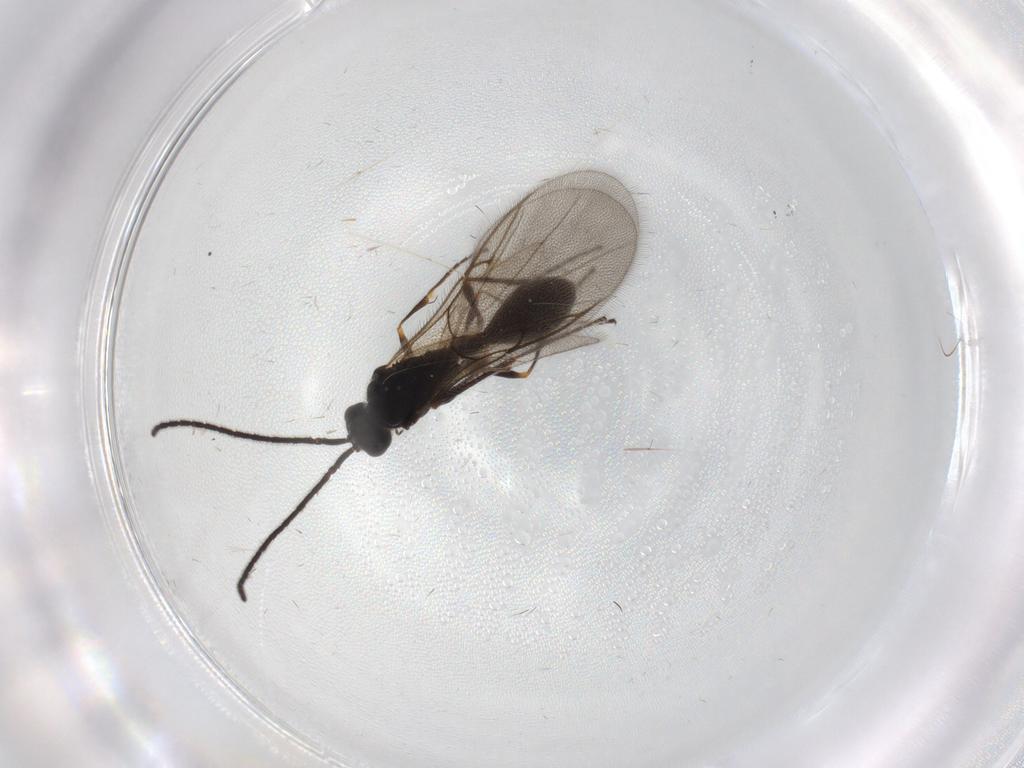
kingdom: Animalia
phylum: Arthropoda
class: Insecta
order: Hymenoptera
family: Diapriidae
